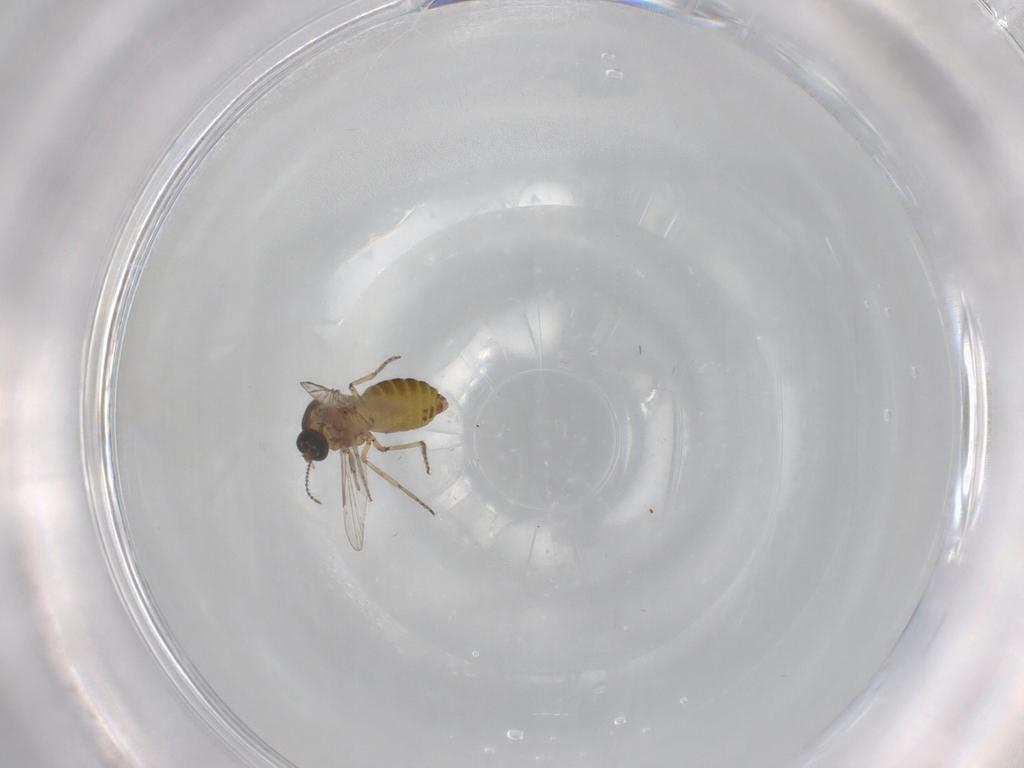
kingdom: Animalia
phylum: Arthropoda
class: Insecta
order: Diptera
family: Ceratopogonidae
